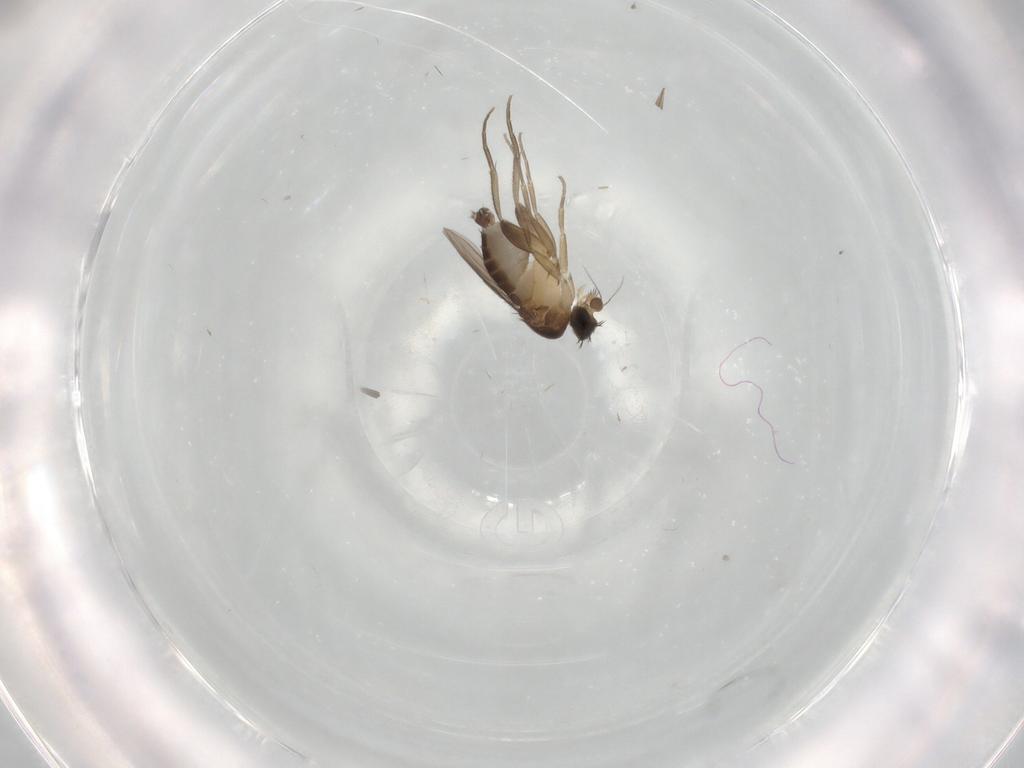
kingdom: Animalia
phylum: Arthropoda
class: Insecta
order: Diptera
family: Phoridae
